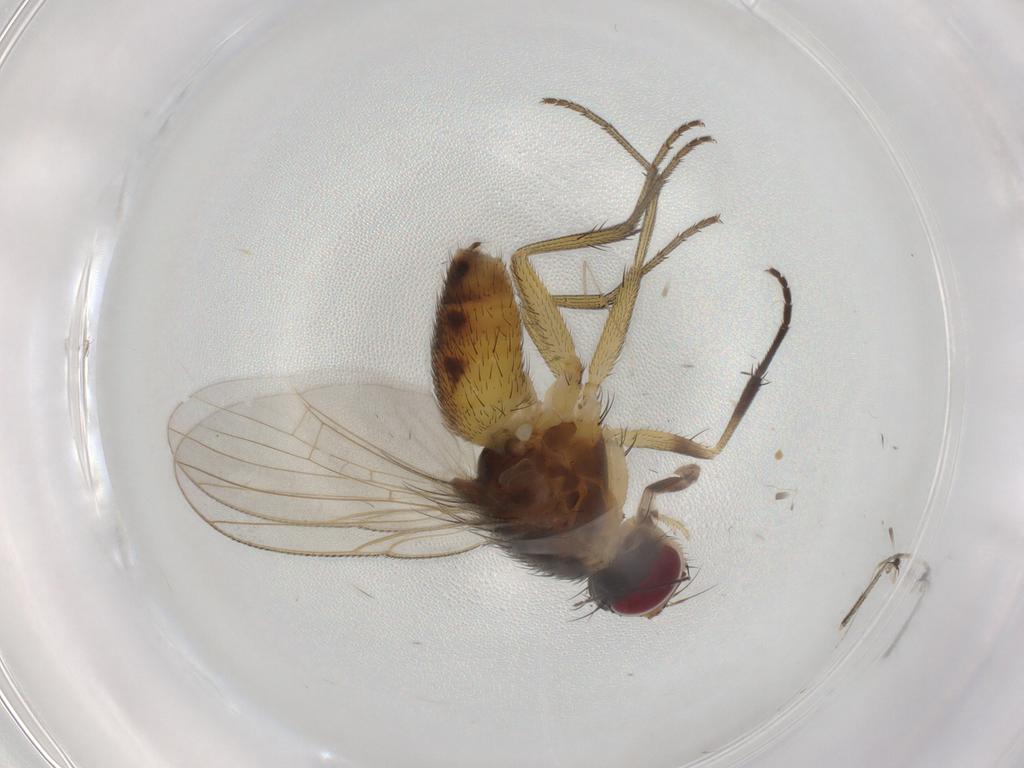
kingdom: Animalia
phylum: Arthropoda
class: Insecta
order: Diptera
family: Muscidae
